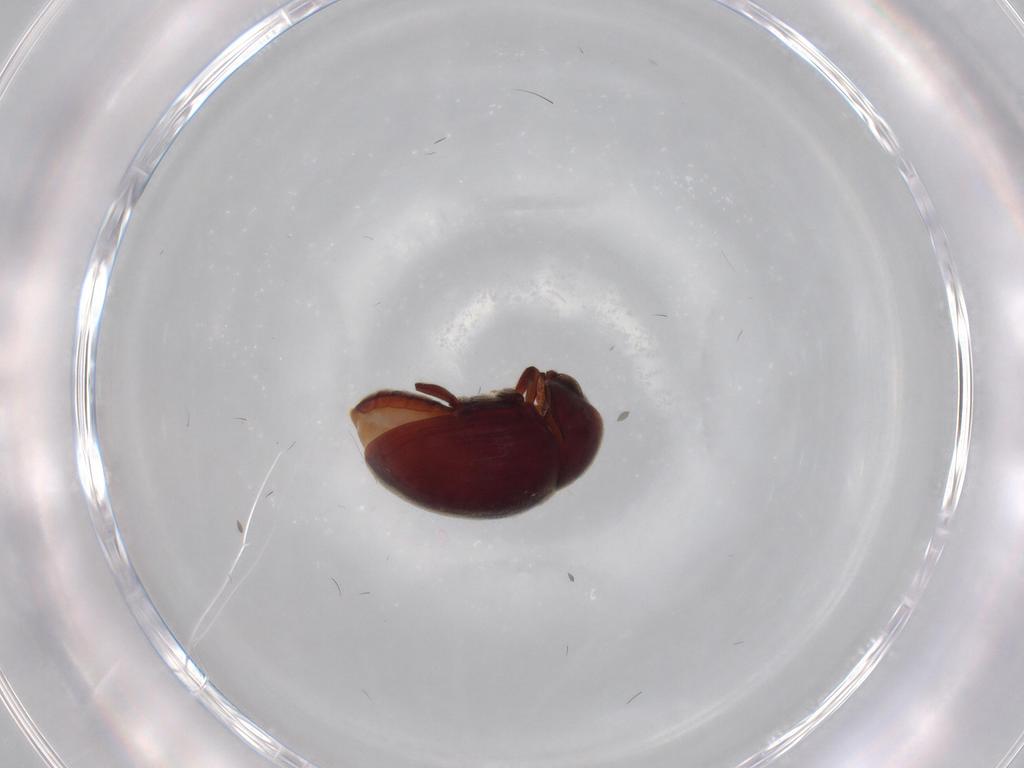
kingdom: Animalia
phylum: Arthropoda
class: Insecta
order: Coleoptera
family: Ptinidae
